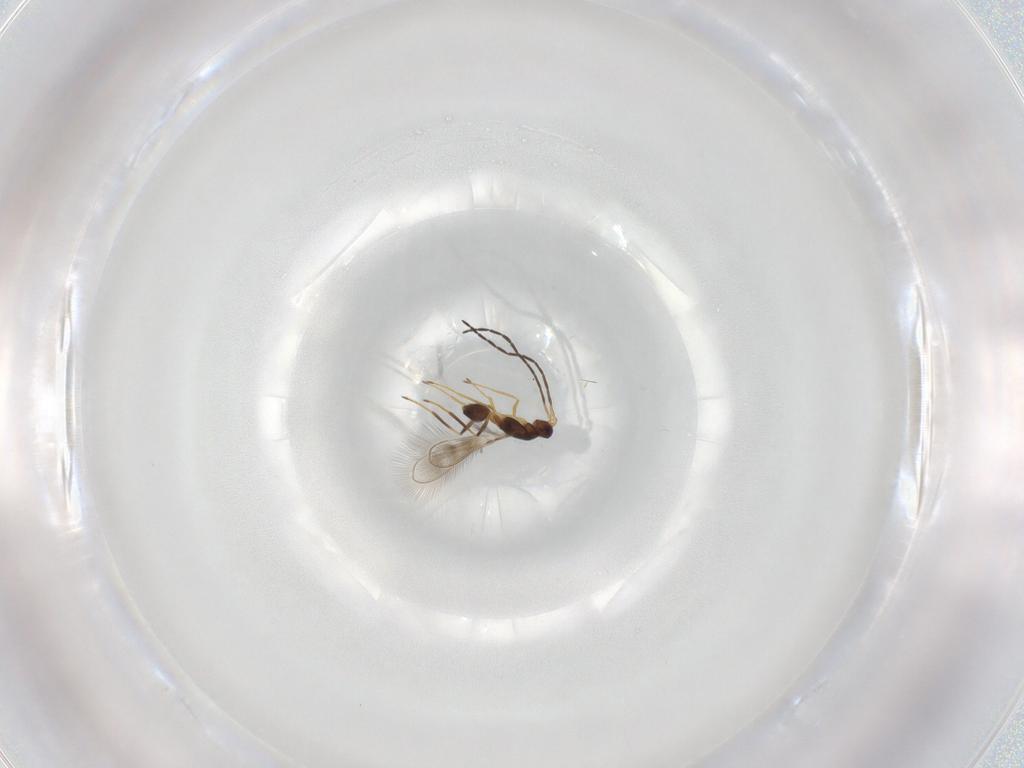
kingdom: Animalia
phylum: Arthropoda
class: Insecta
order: Hymenoptera
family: Mymaridae
